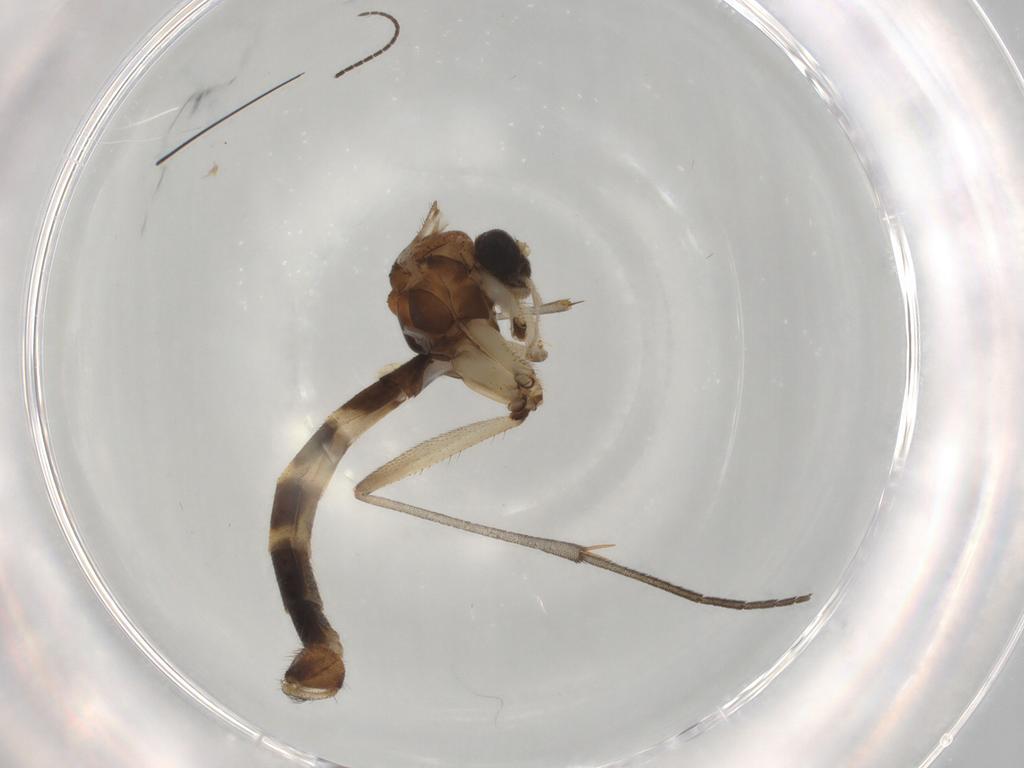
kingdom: Animalia
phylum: Arthropoda
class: Insecta
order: Diptera
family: Mycetophilidae
